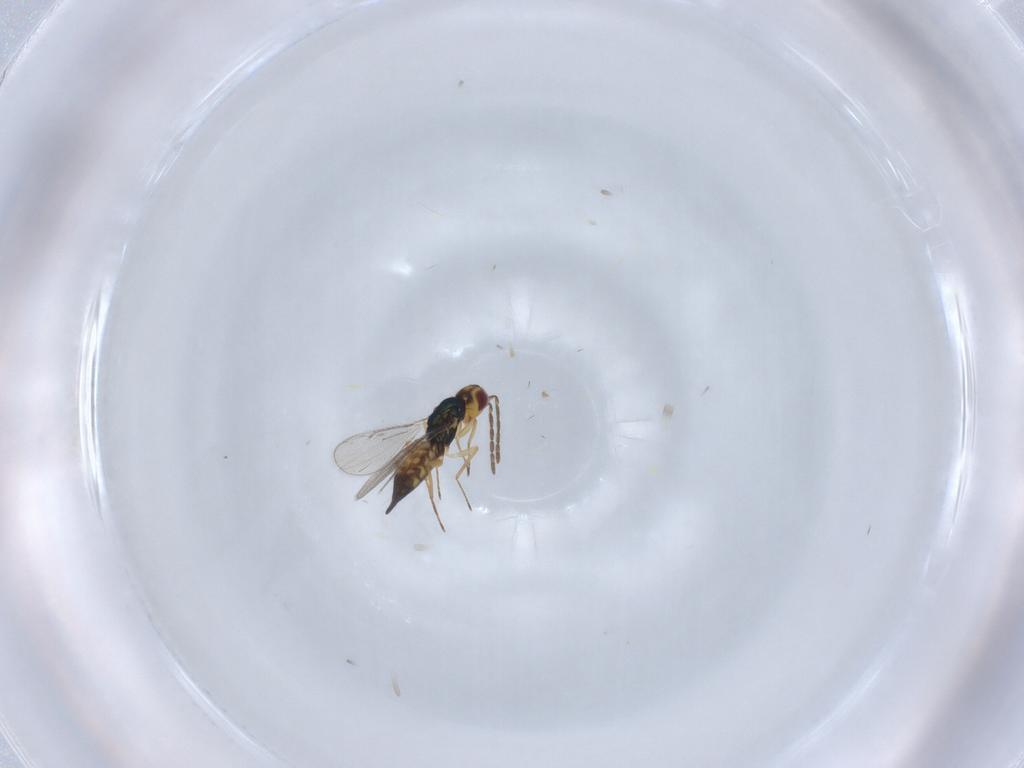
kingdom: Animalia
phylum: Arthropoda
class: Insecta
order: Hymenoptera
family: Eulophidae
